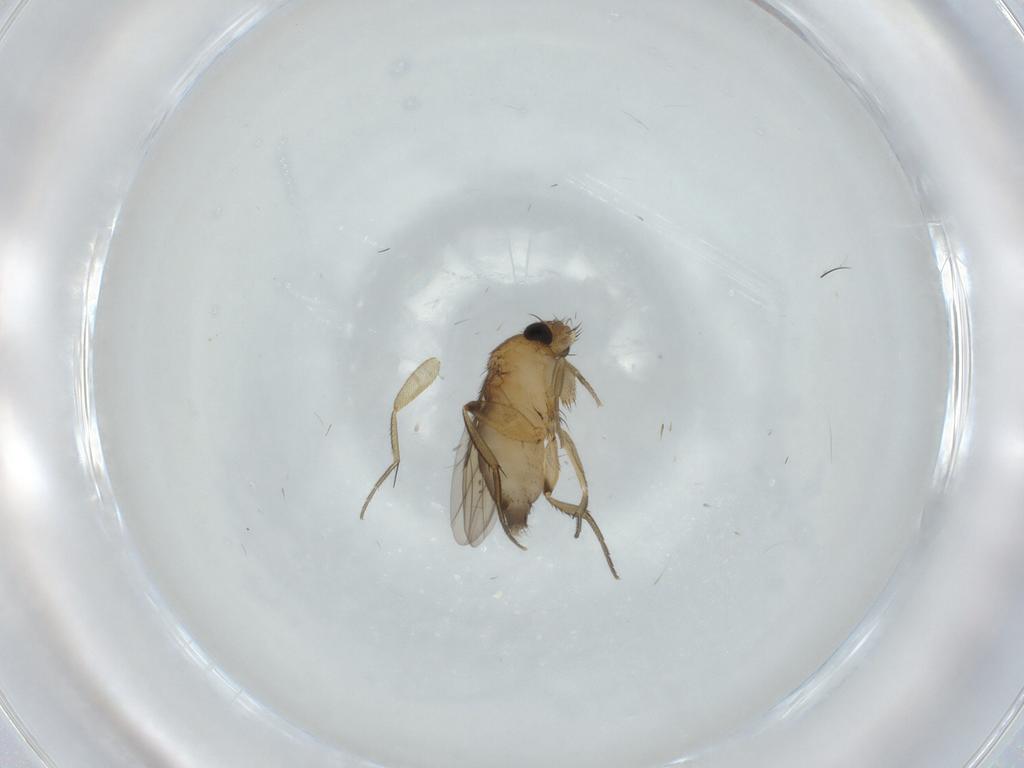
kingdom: Animalia
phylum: Arthropoda
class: Insecta
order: Diptera
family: Phoridae
